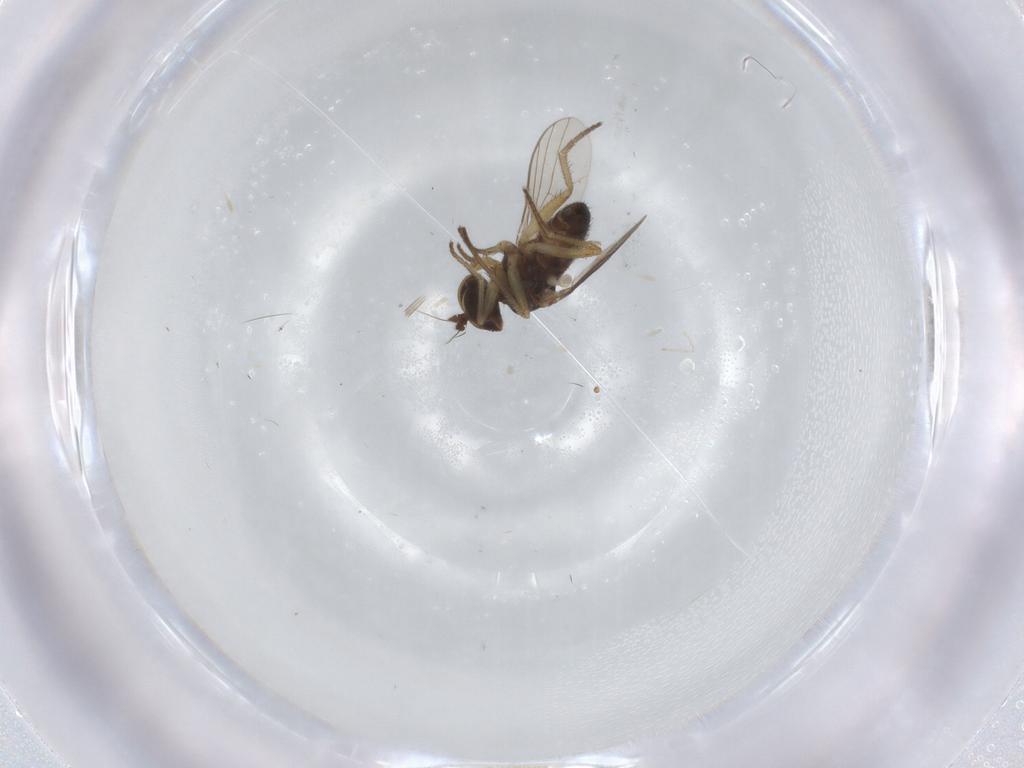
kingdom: Animalia
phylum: Arthropoda
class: Insecta
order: Diptera
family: Dolichopodidae
